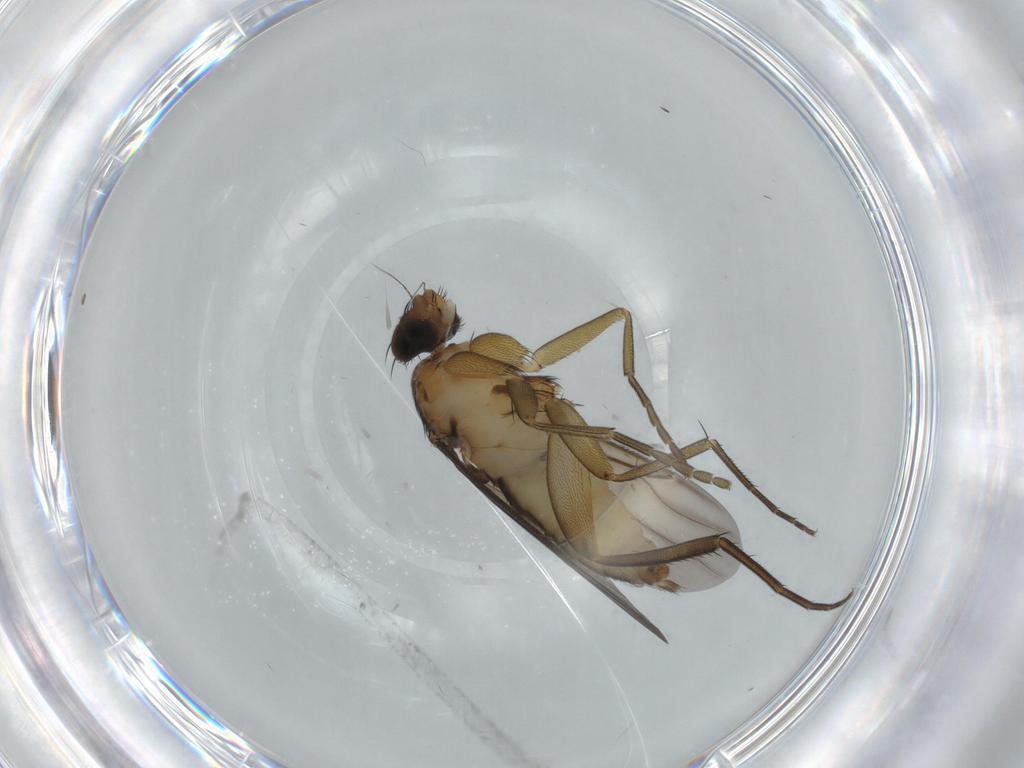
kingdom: Animalia
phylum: Arthropoda
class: Insecta
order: Diptera
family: Phoridae
